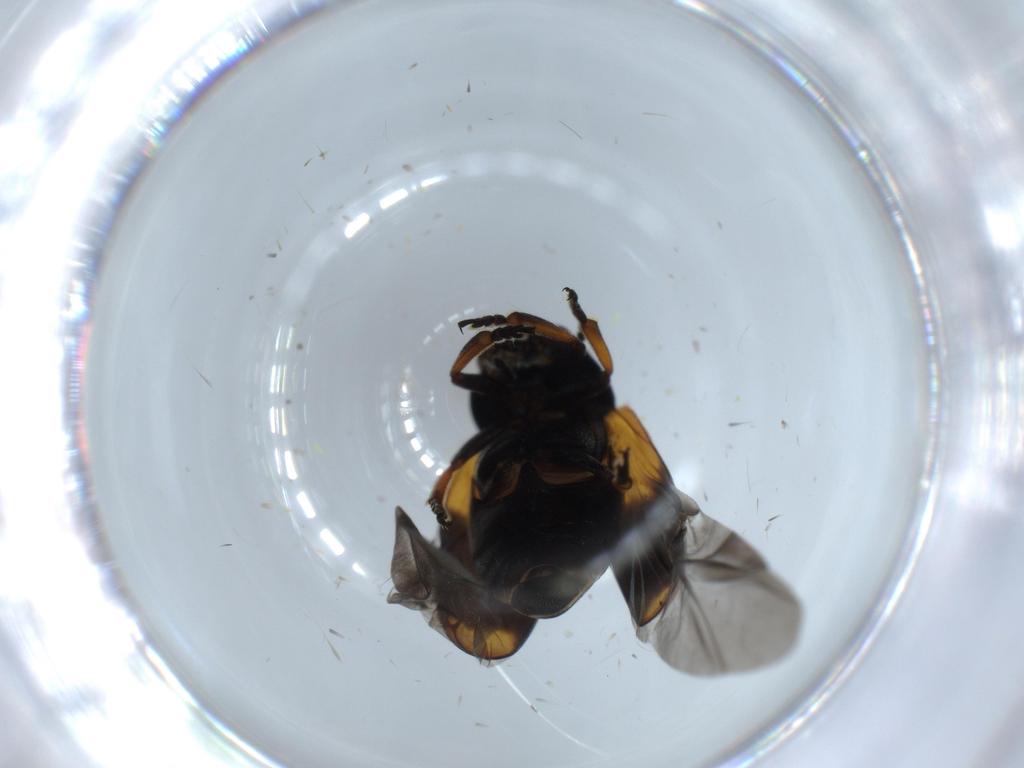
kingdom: Animalia
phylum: Arthropoda
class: Insecta
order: Coleoptera
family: Chrysomelidae
